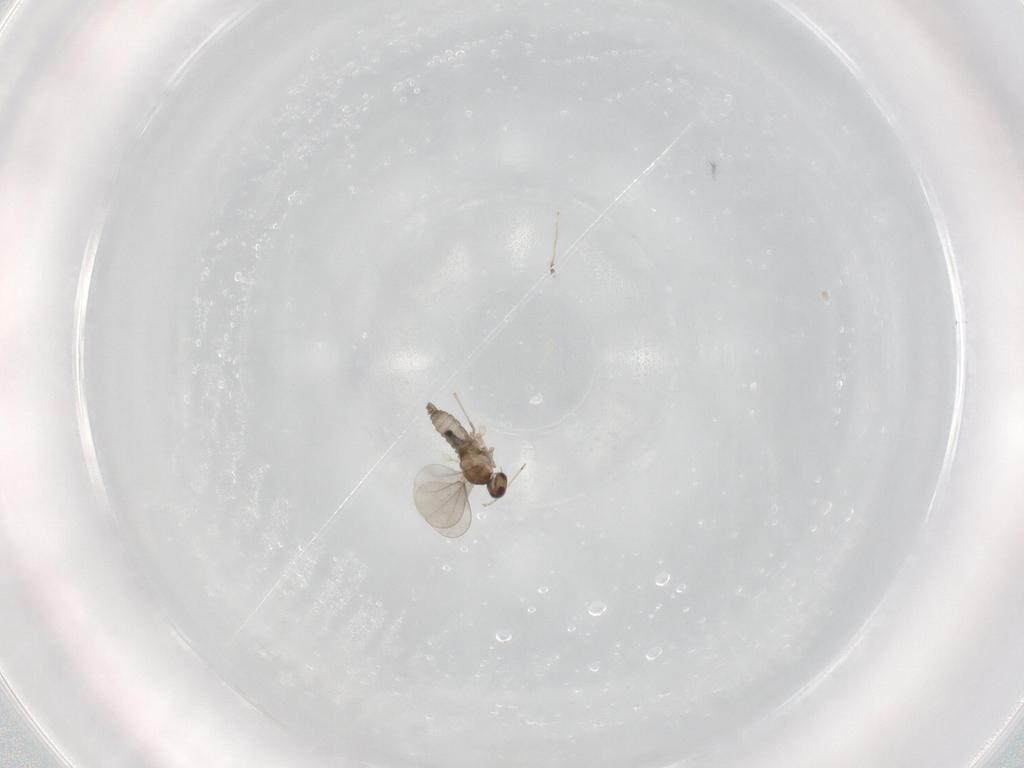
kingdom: Animalia
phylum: Arthropoda
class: Insecta
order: Diptera
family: Cecidomyiidae
